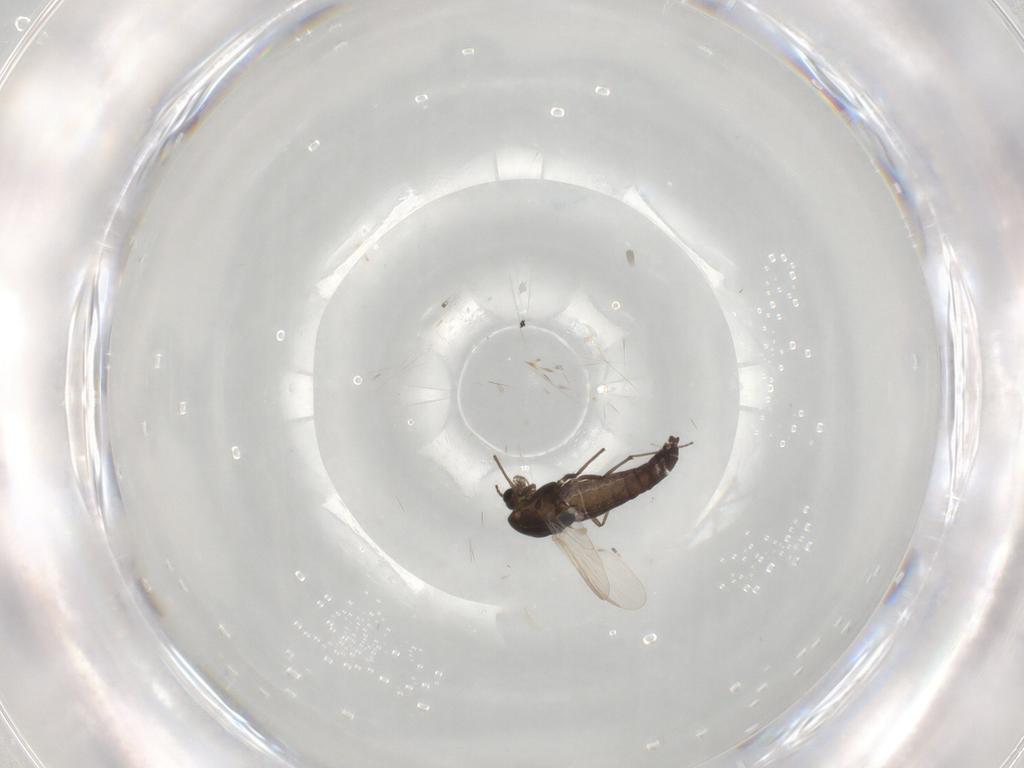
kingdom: Animalia
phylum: Arthropoda
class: Insecta
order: Diptera
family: Chironomidae
